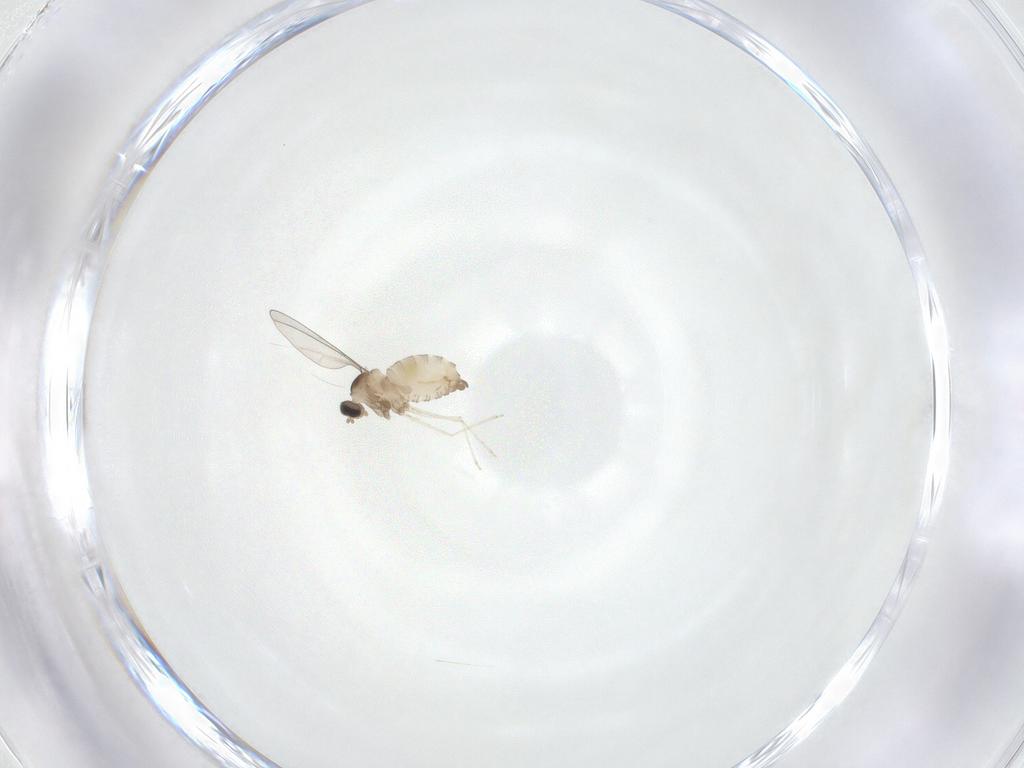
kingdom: Animalia
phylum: Arthropoda
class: Insecta
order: Diptera
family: Cecidomyiidae
